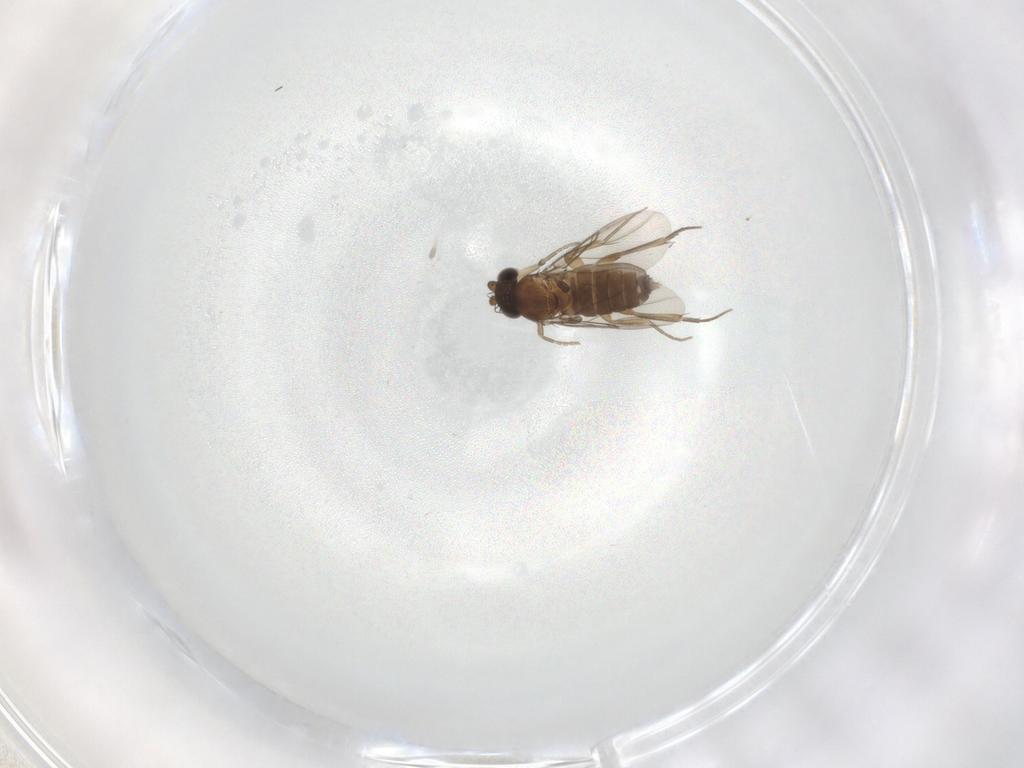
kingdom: Animalia
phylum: Arthropoda
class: Insecta
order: Diptera
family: Phoridae
